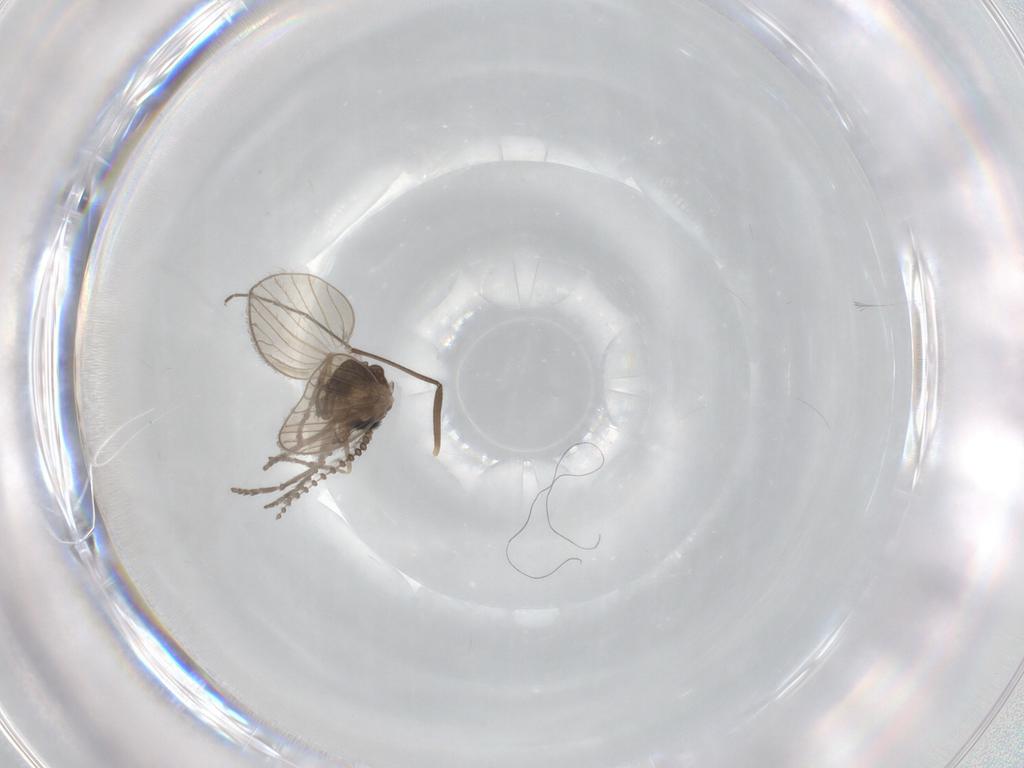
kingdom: Animalia
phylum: Arthropoda
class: Insecta
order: Diptera
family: Psychodidae
